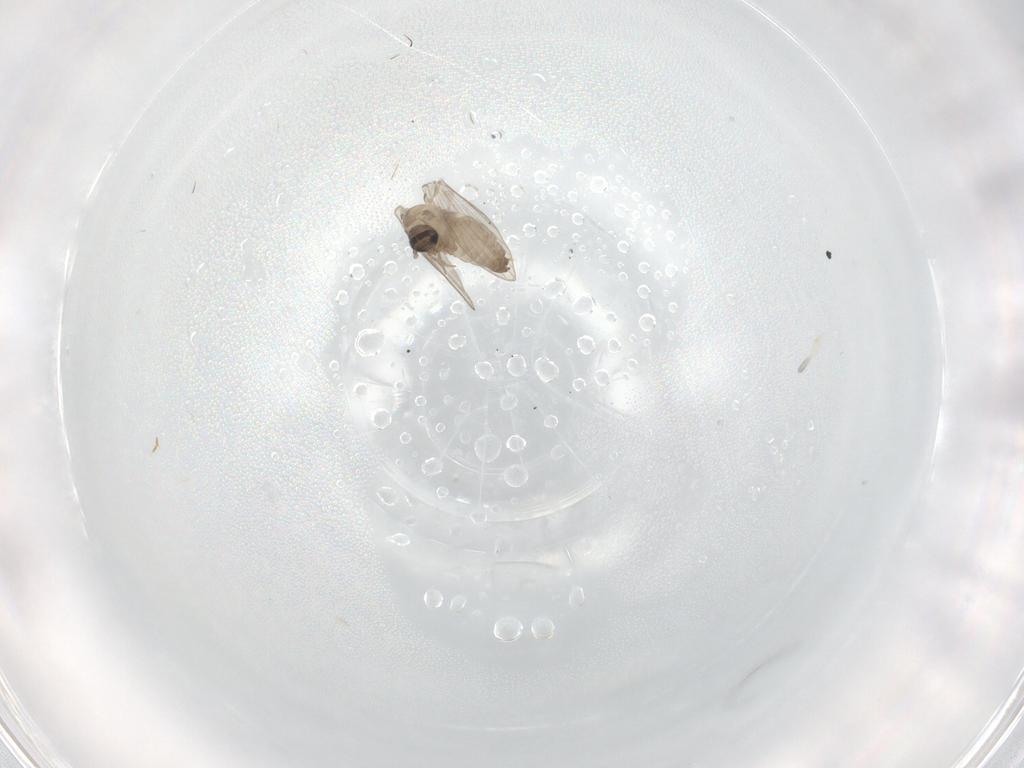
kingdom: Animalia
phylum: Arthropoda
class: Insecta
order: Diptera
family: Psychodidae
